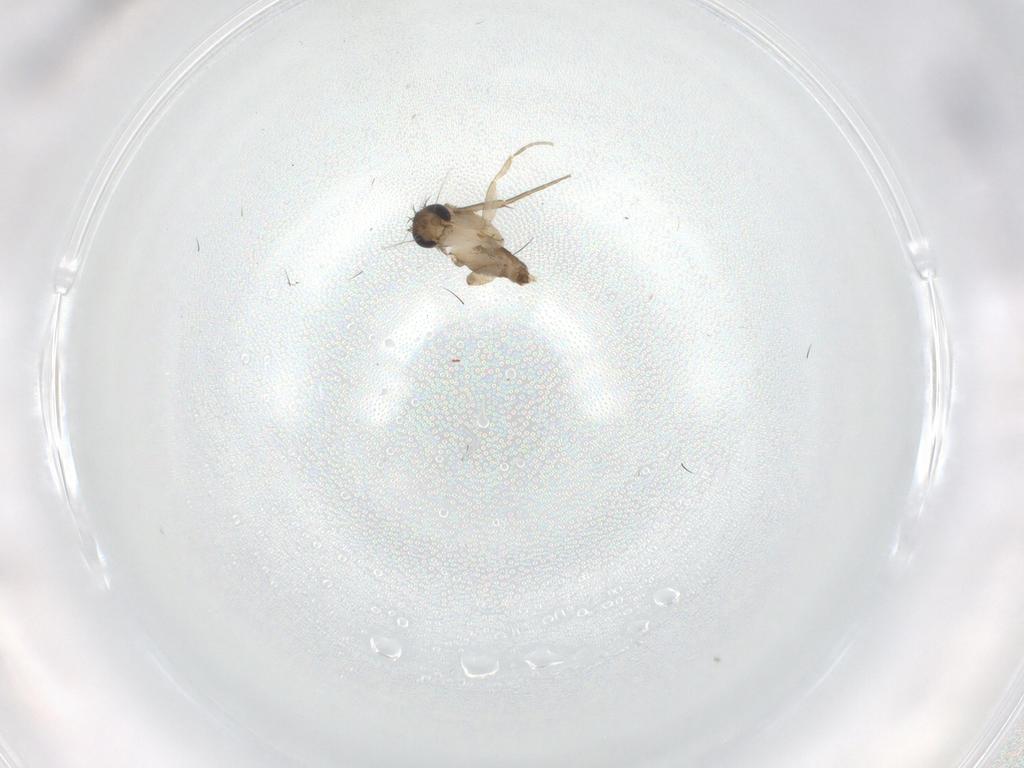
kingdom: Animalia
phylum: Arthropoda
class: Insecta
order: Diptera
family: Phoridae
